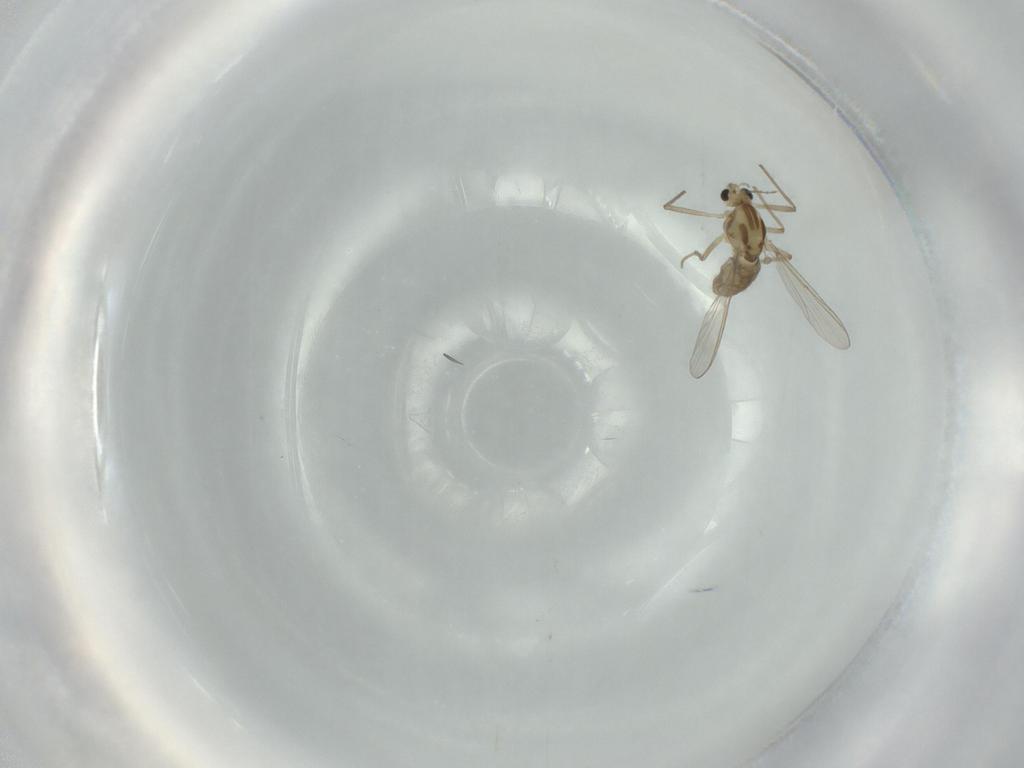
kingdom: Animalia
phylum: Arthropoda
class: Insecta
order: Diptera
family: Chironomidae
